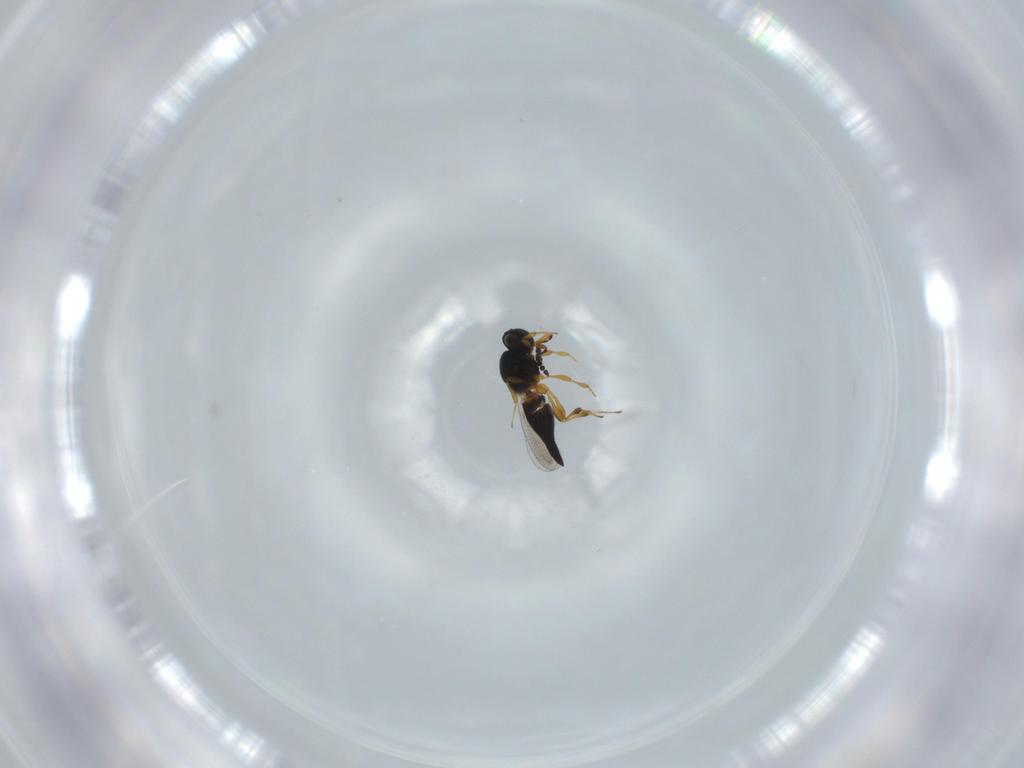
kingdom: Animalia
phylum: Arthropoda
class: Insecta
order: Hymenoptera
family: Platygastridae
